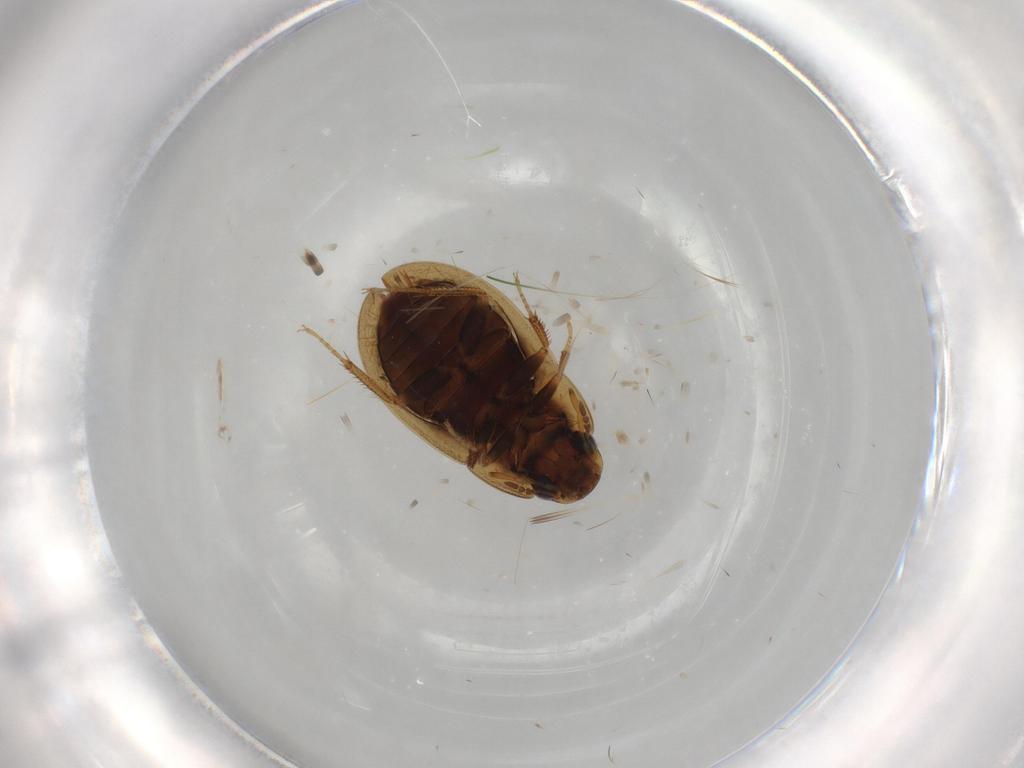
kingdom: Animalia
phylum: Arthropoda
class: Insecta
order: Coleoptera
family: Hydrophilidae
